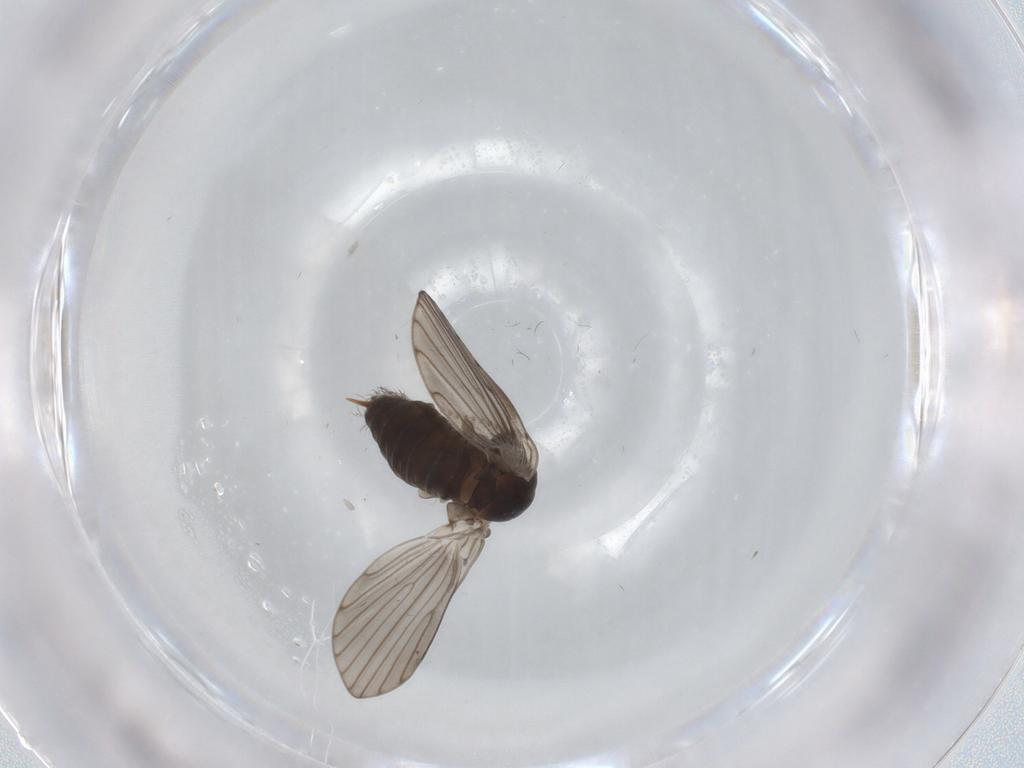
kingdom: Animalia
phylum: Arthropoda
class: Insecta
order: Diptera
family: Psychodidae
